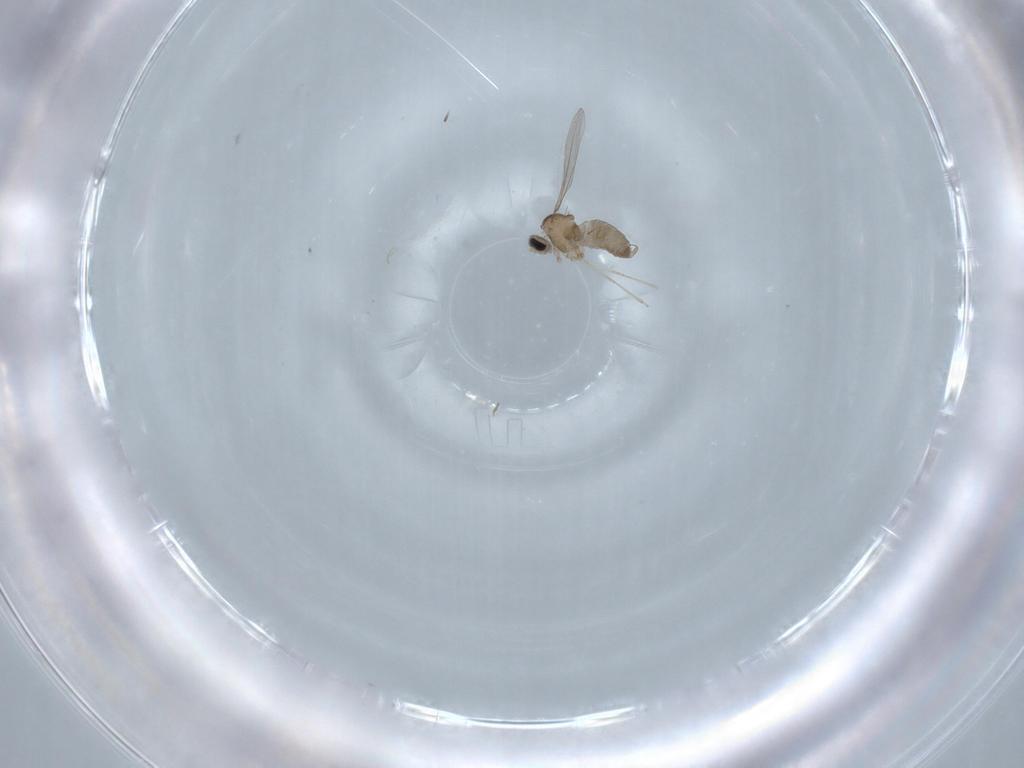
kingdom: Animalia
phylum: Arthropoda
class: Insecta
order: Diptera
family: Cecidomyiidae
